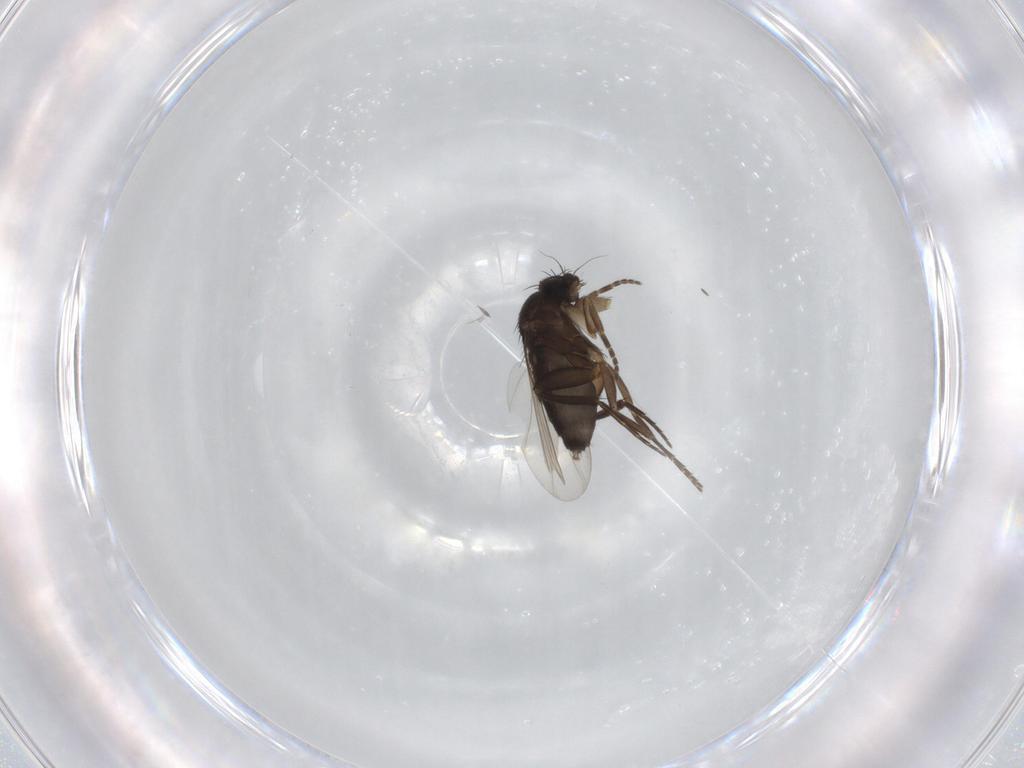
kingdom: Animalia
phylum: Arthropoda
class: Insecta
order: Diptera
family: Phoridae
